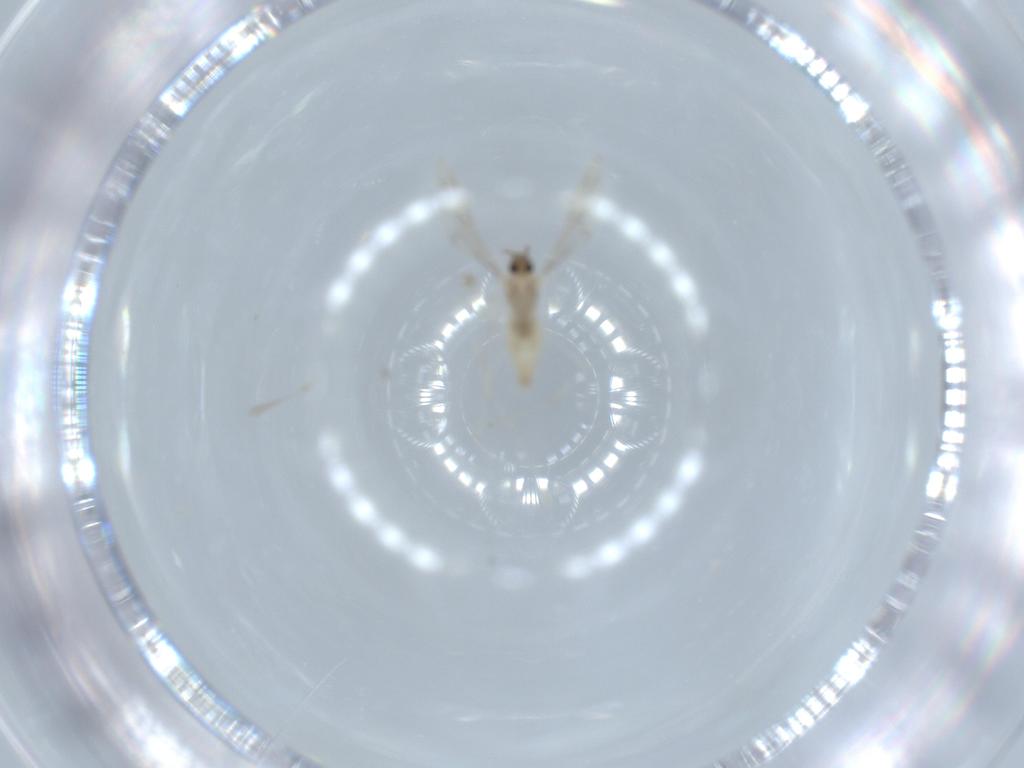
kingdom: Animalia
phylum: Arthropoda
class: Insecta
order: Diptera
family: Cecidomyiidae
